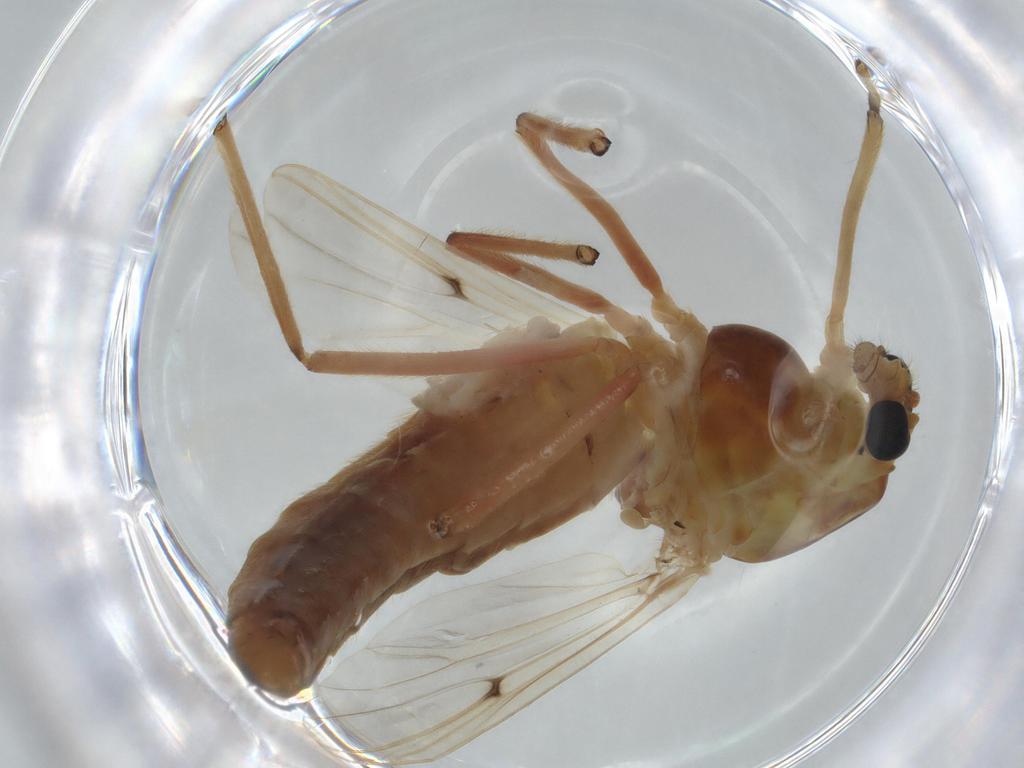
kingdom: Animalia
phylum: Arthropoda
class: Insecta
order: Diptera
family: Chironomidae
